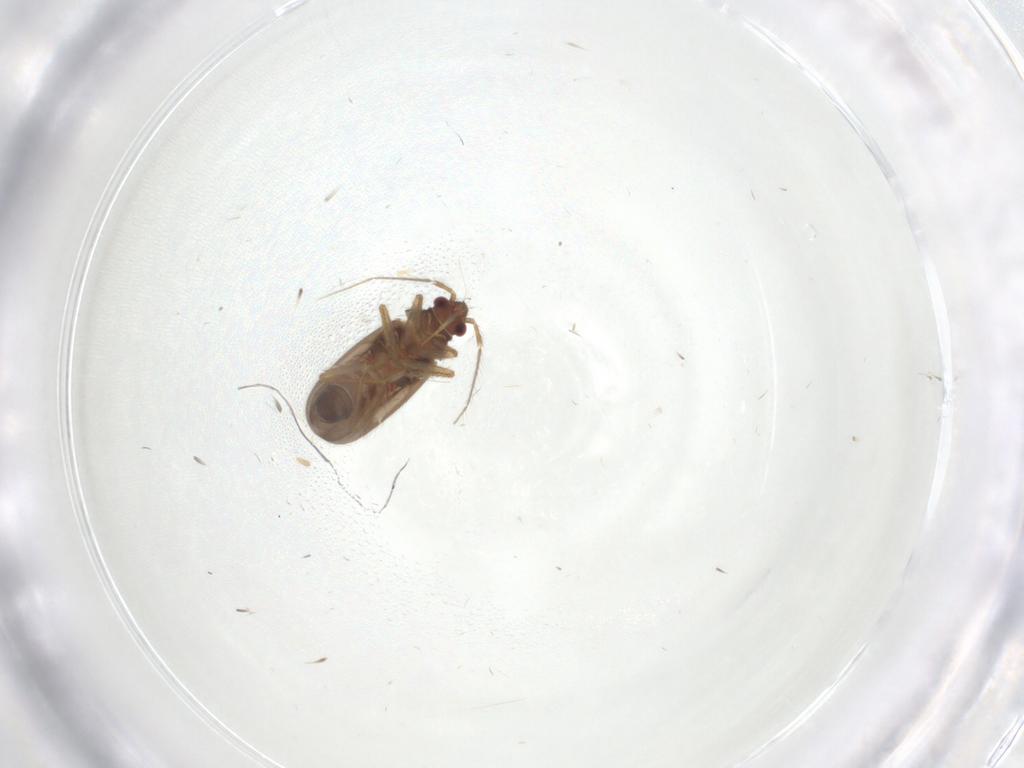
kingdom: Animalia
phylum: Arthropoda
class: Insecta
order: Hemiptera
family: Ceratocombidae
